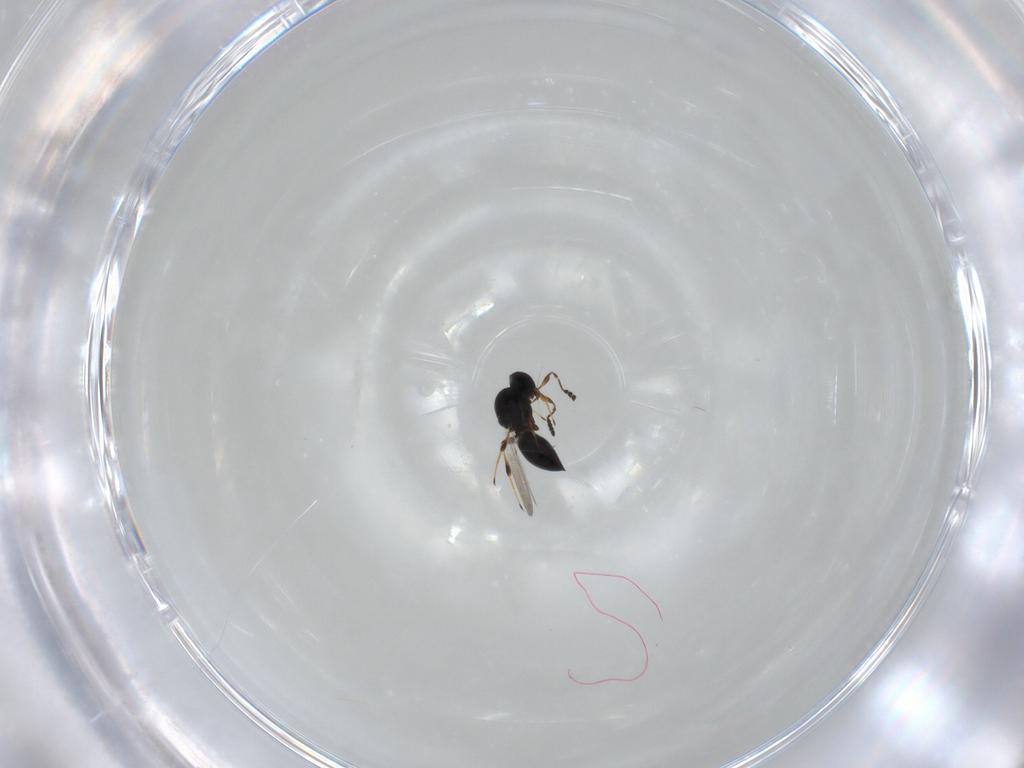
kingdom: Animalia
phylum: Arthropoda
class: Insecta
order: Hymenoptera
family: Platygastridae
